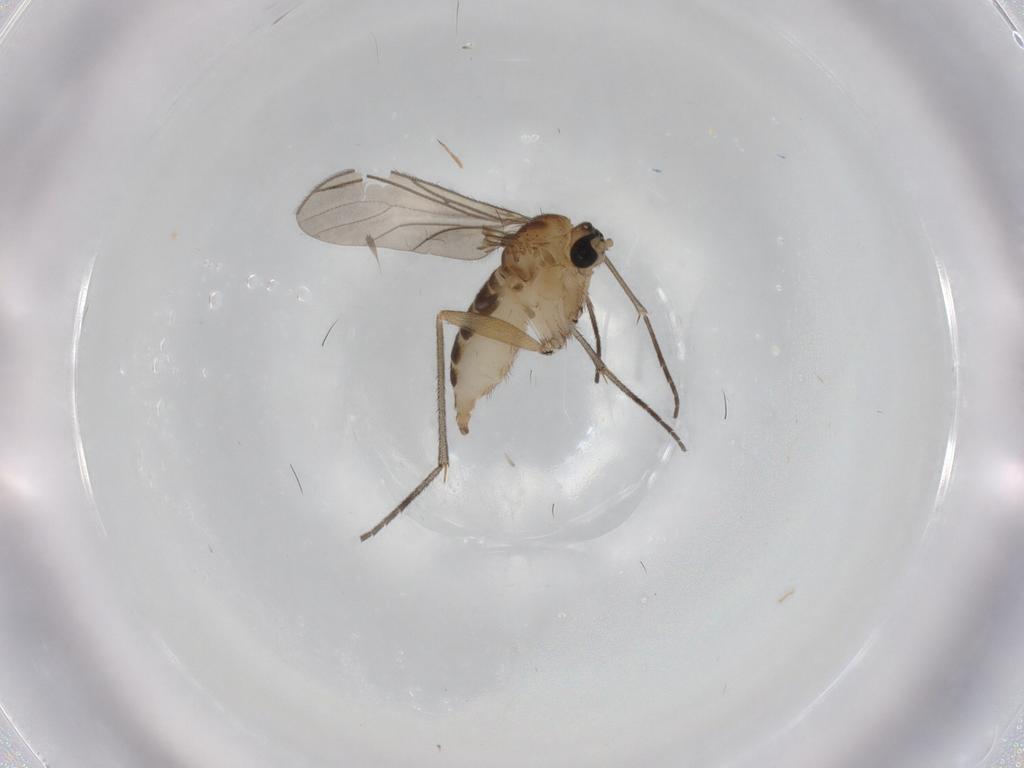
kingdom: Animalia
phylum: Arthropoda
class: Insecta
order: Diptera
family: Sciaridae
